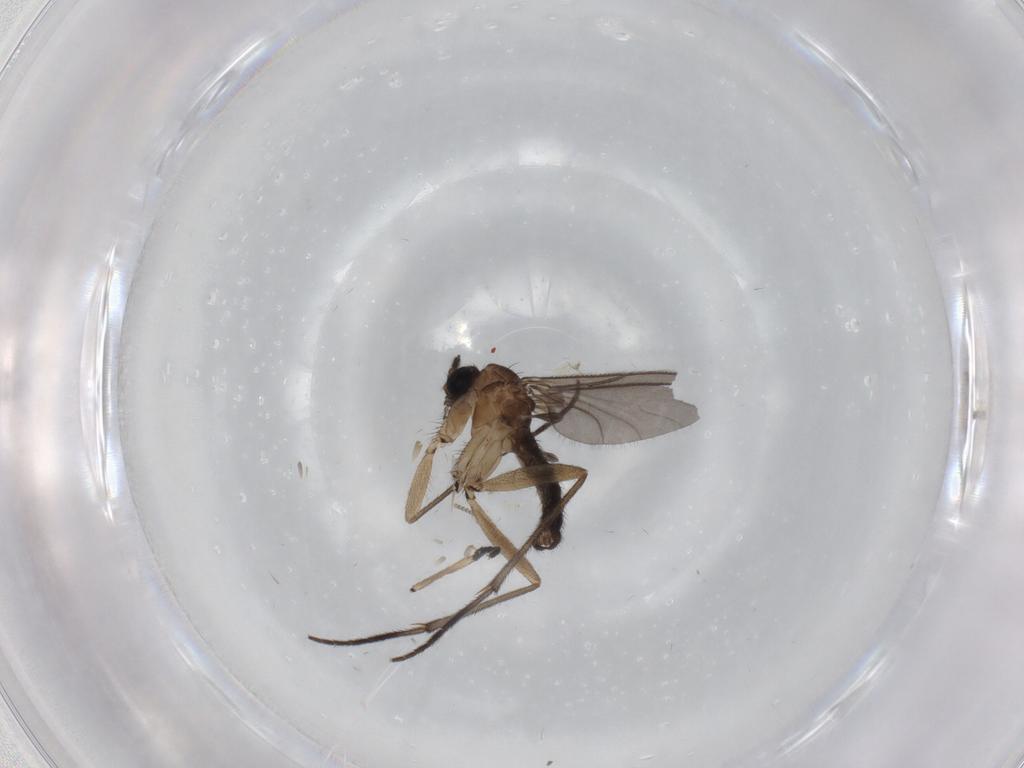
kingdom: Animalia
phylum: Arthropoda
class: Insecta
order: Diptera
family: Cecidomyiidae
